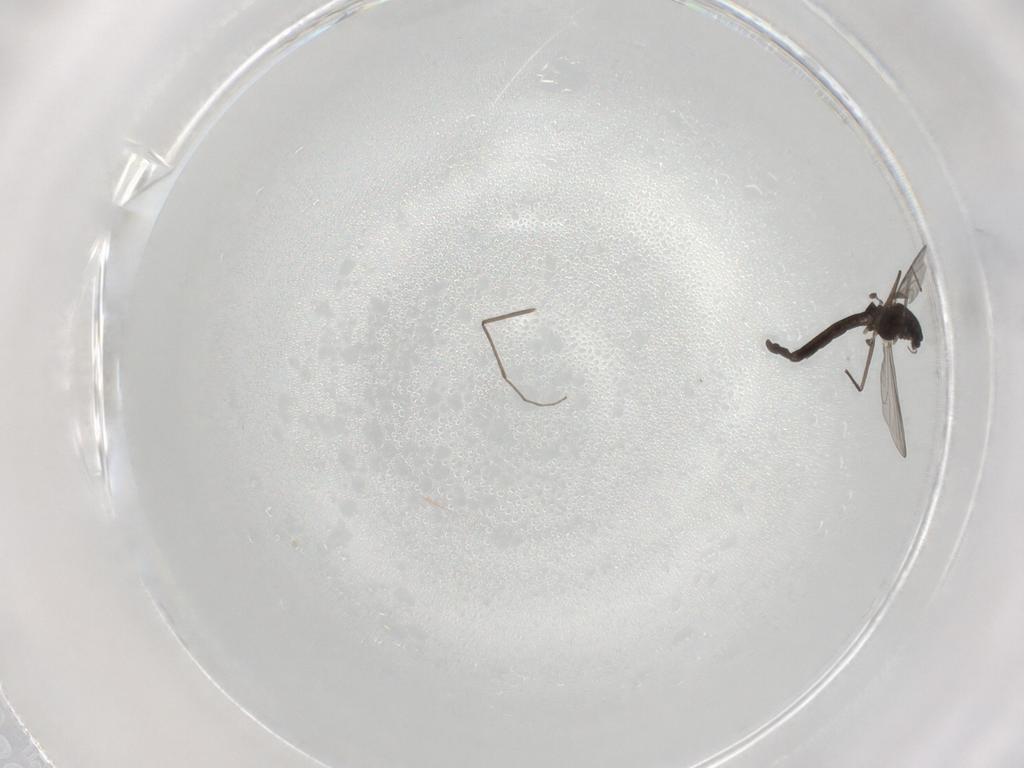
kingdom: Animalia
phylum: Arthropoda
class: Insecta
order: Diptera
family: Chironomidae
